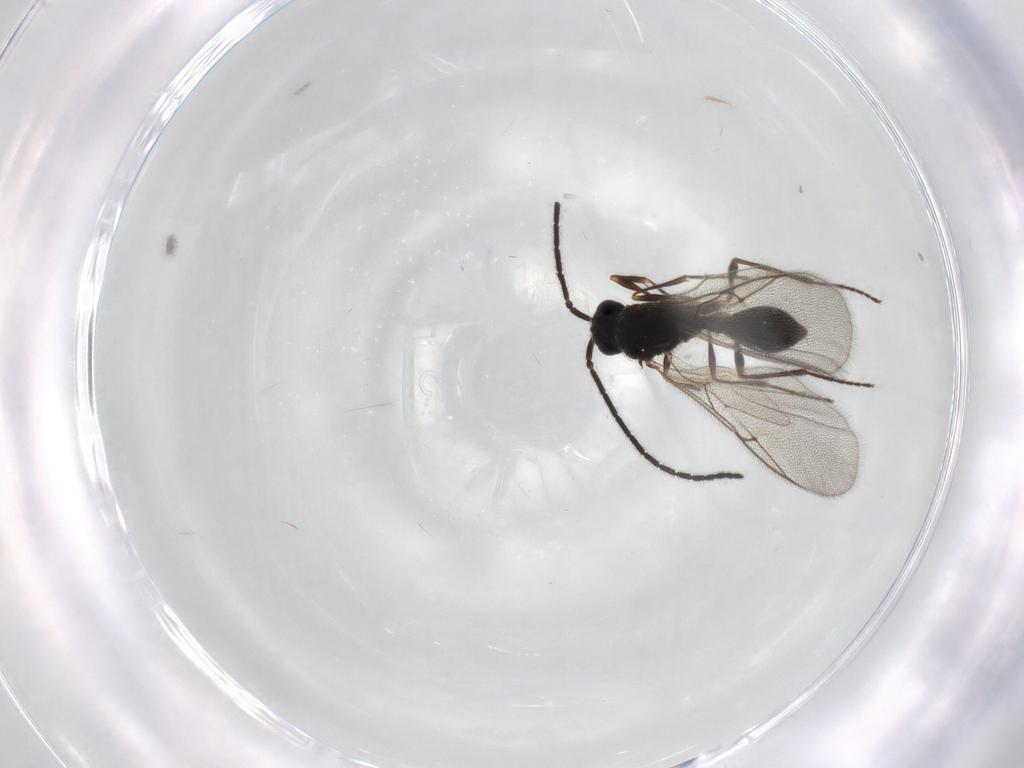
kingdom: Animalia
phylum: Arthropoda
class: Insecta
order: Hymenoptera
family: Diapriidae
